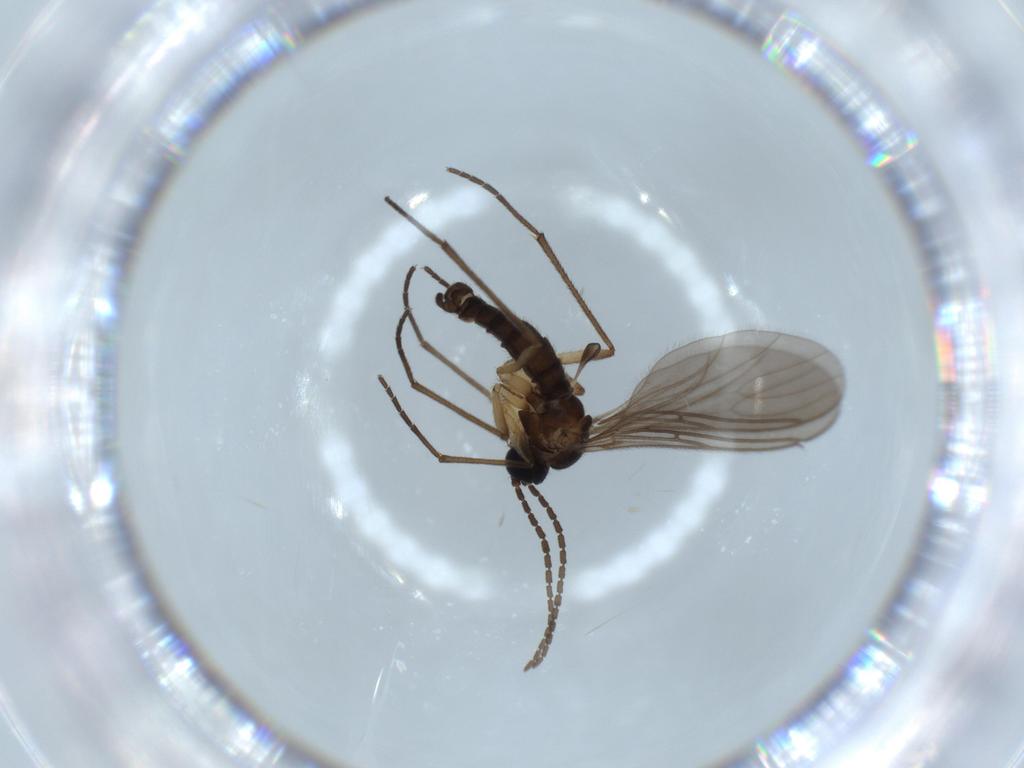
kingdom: Animalia
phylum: Arthropoda
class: Insecta
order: Diptera
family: Sciaridae
